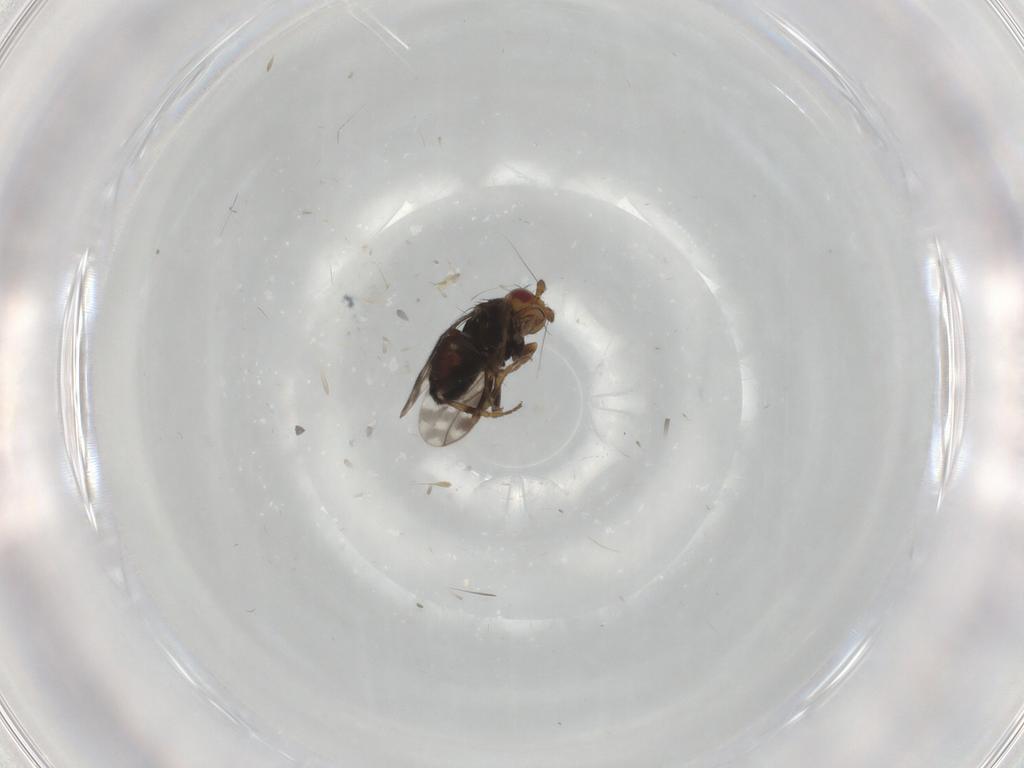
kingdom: Animalia
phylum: Arthropoda
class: Insecta
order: Diptera
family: Sphaeroceridae
